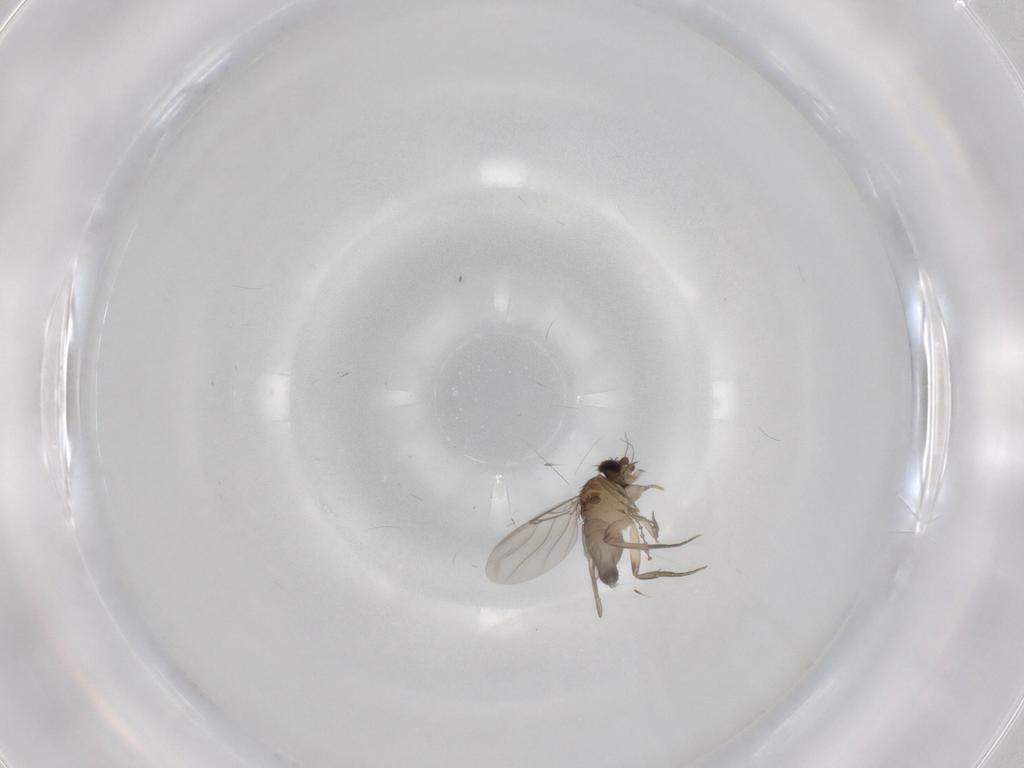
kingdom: Animalia
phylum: Arthropoda
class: Insecta
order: Diptera
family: Phoridae
